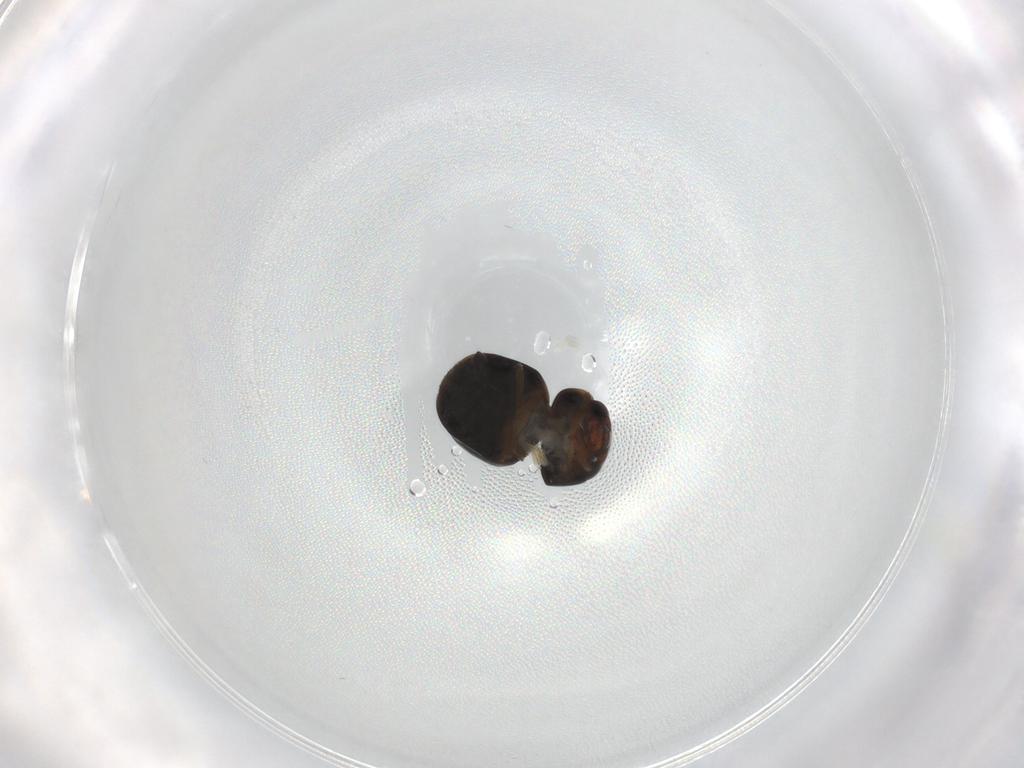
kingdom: Animalia
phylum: Arthropoda
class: Insecta
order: Coleoptera
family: Cybocephalidae
